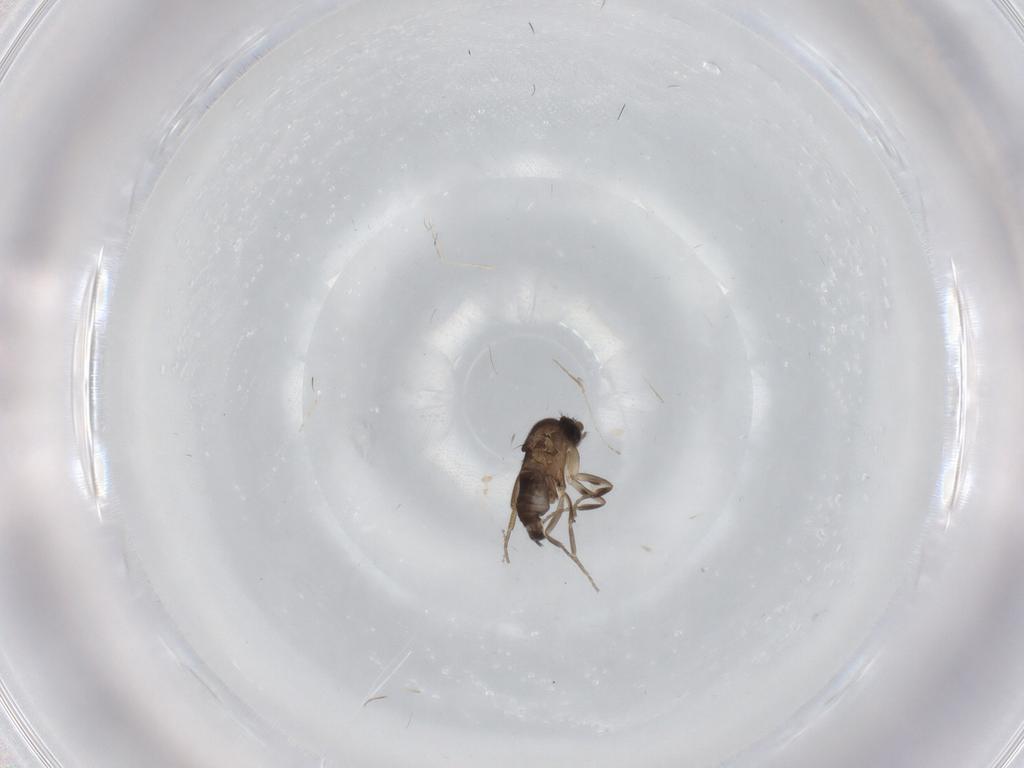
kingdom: Animalia
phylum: Arthropoda
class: Insecta
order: Diptera
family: Phoridae
